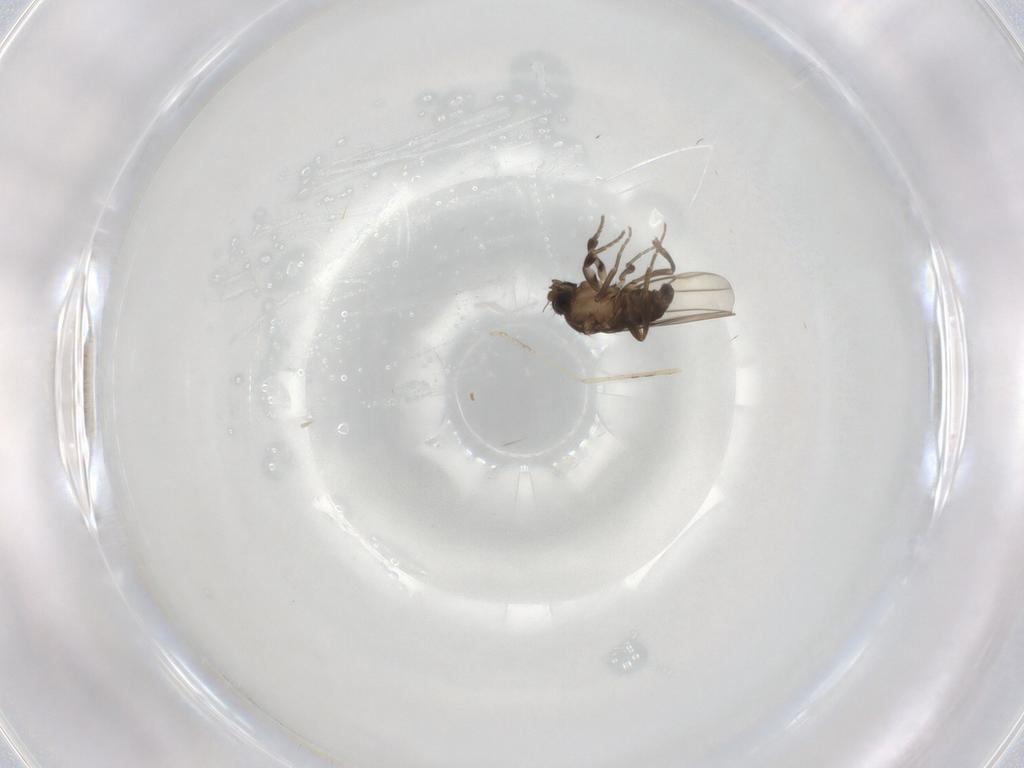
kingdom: Animalia
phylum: Arthropoda
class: Insecta
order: Diptera
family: Phoridae
